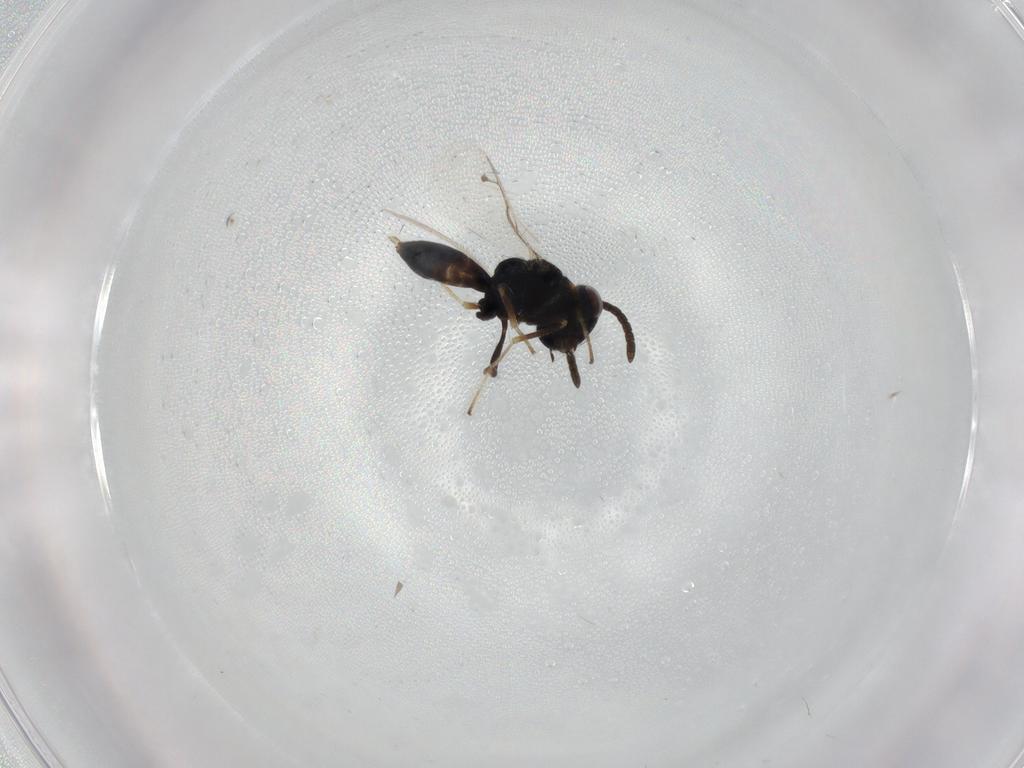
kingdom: Animalia
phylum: Arthropoda
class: Insecta
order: Hymenoptera
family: Pteromalidae
